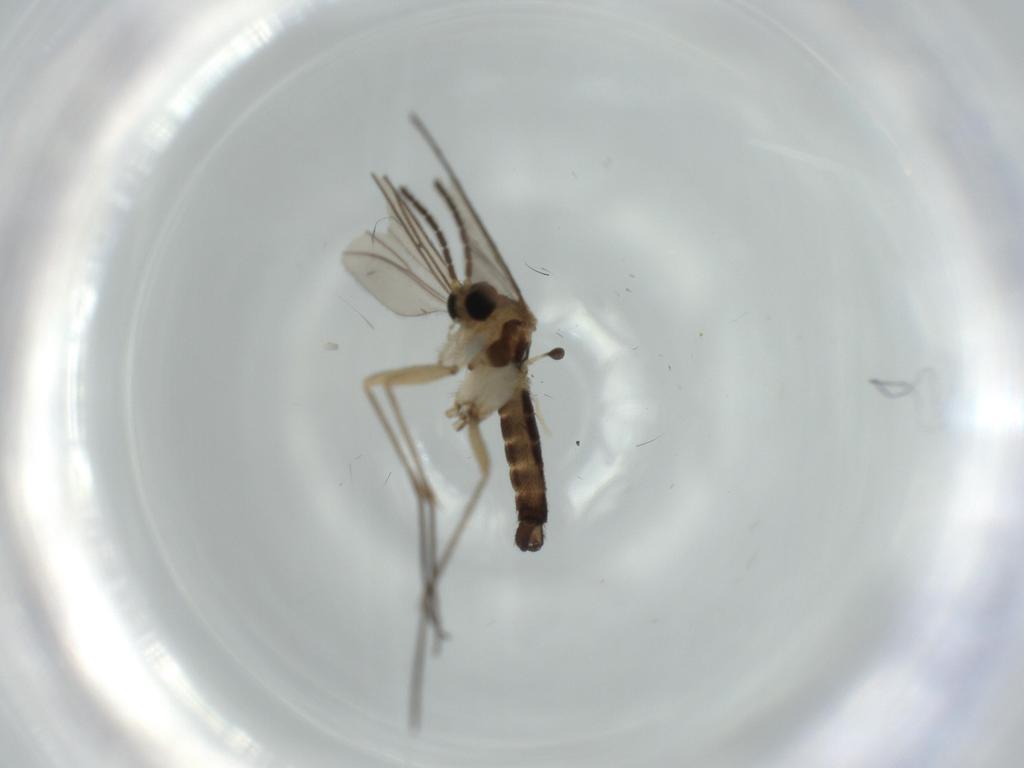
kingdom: Animalia
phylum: Arthropoda
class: Insecta
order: Diptera
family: Sciaridae
